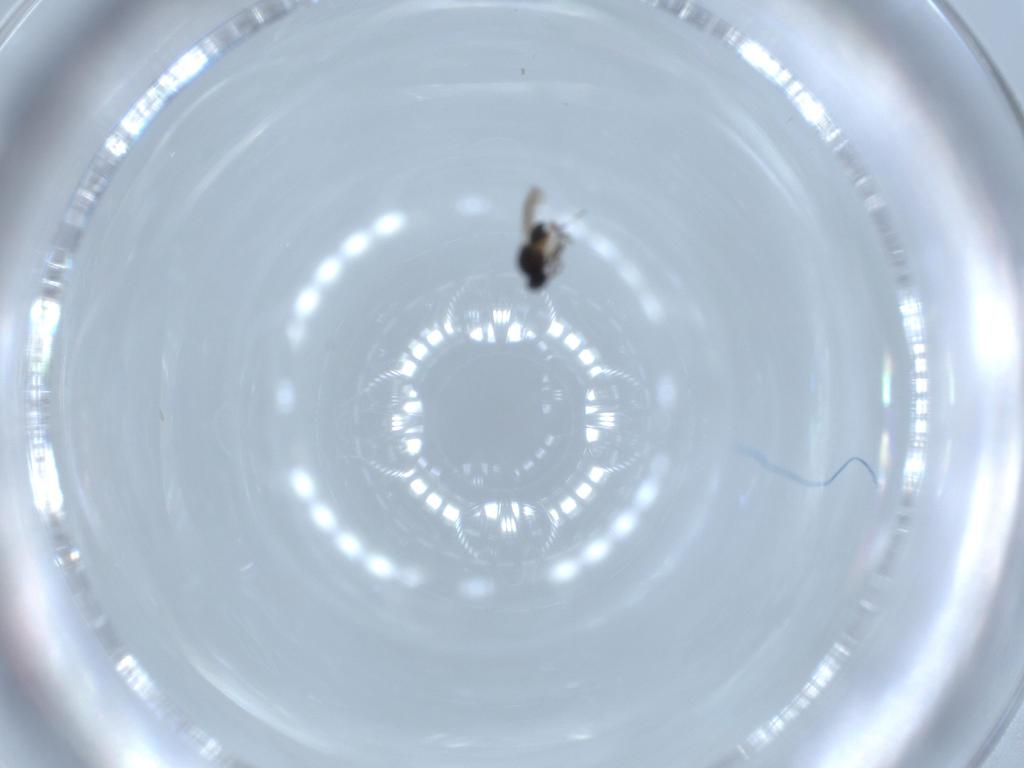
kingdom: Animalia
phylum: Arthropoda
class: Insecta
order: Hymenoptera
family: Platygastridae
